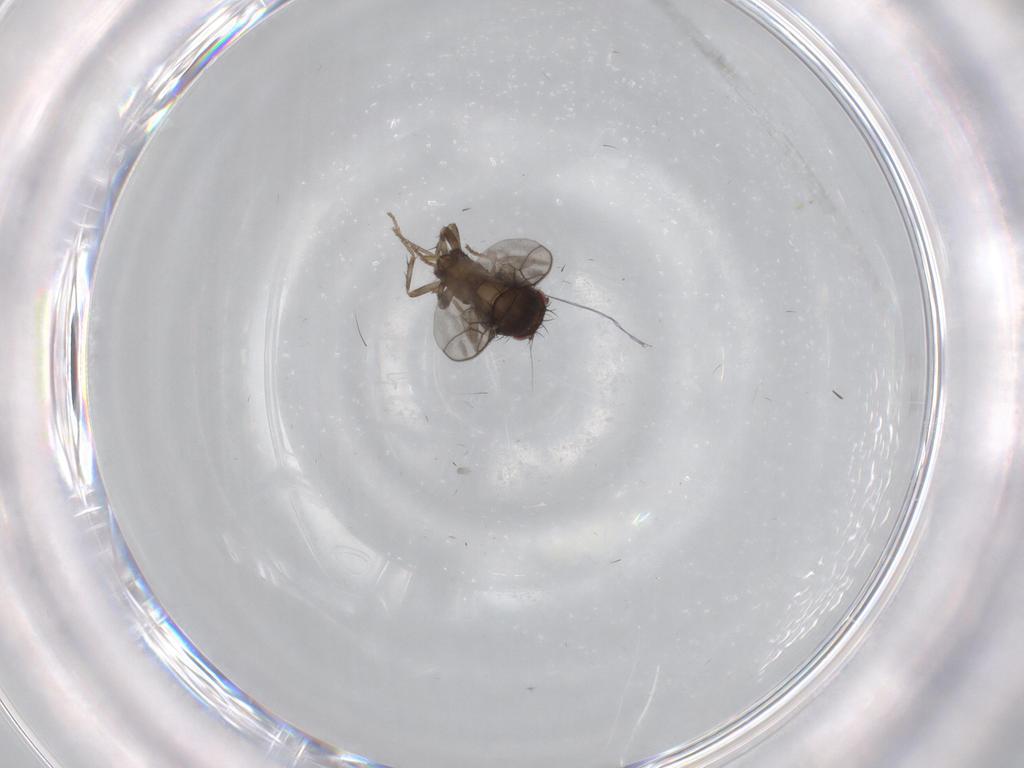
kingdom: Animalia
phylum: Arthropoda
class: Insecta
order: Diptera
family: Sphaeroceridae
